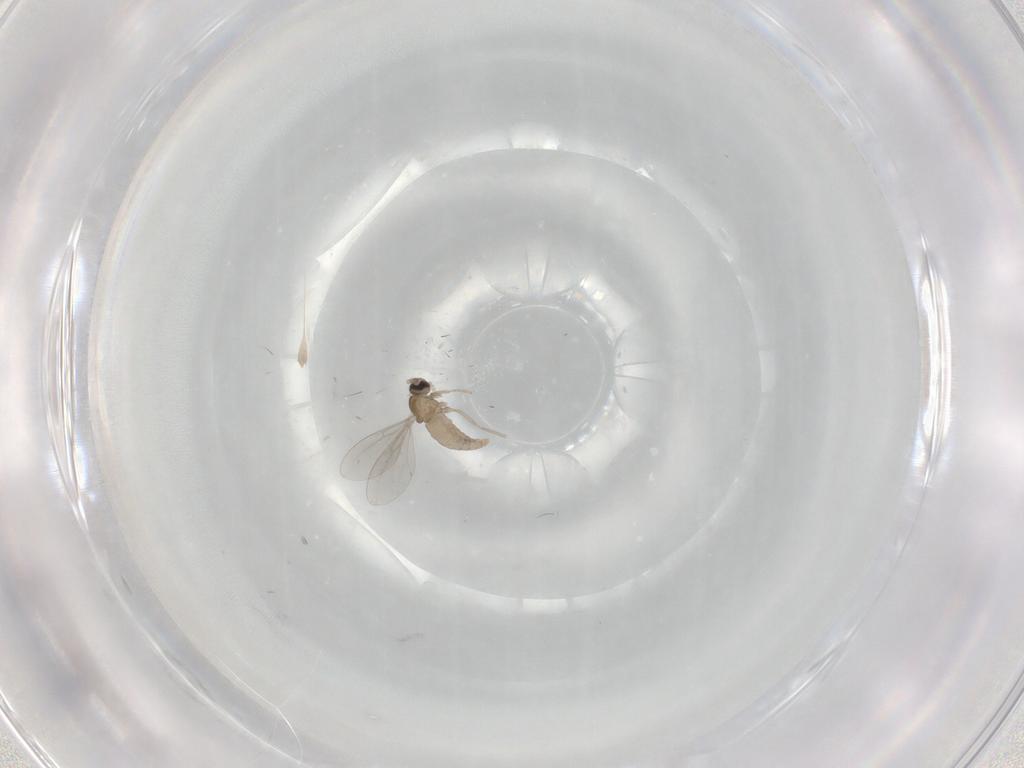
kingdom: Animalia
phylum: Arthropoda
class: Insecta
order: Diptera
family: Cecidomyiidae
